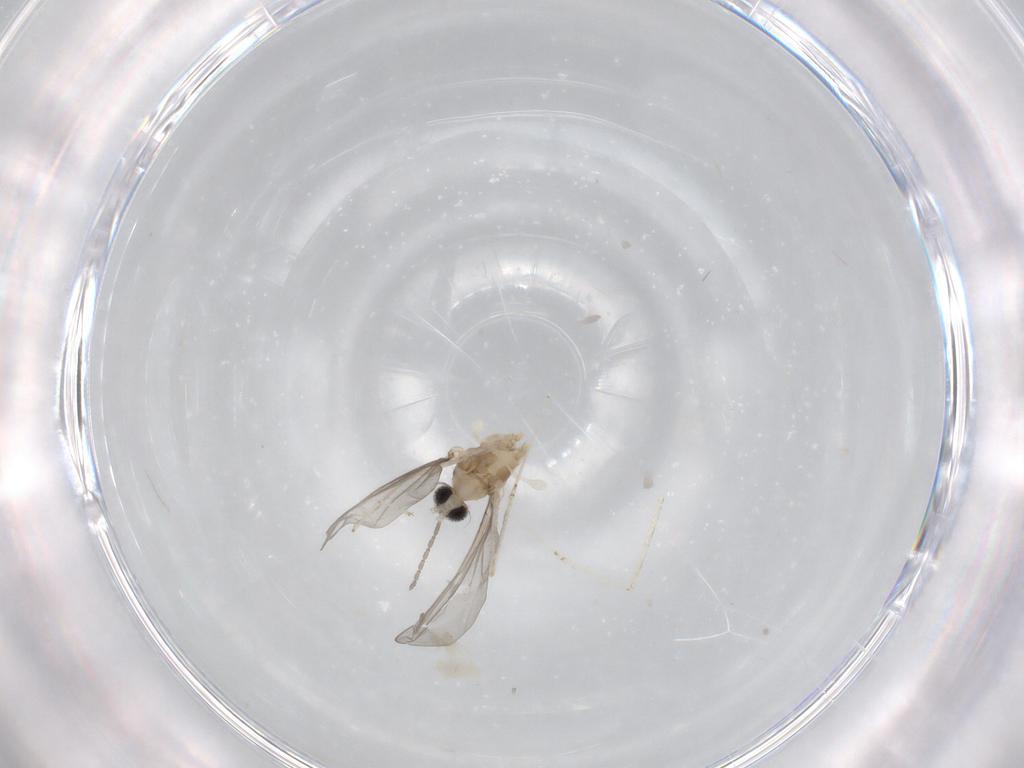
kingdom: Animalia
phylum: Arthropoda
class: Insecta
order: Diptera
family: Cecidomyiidae
